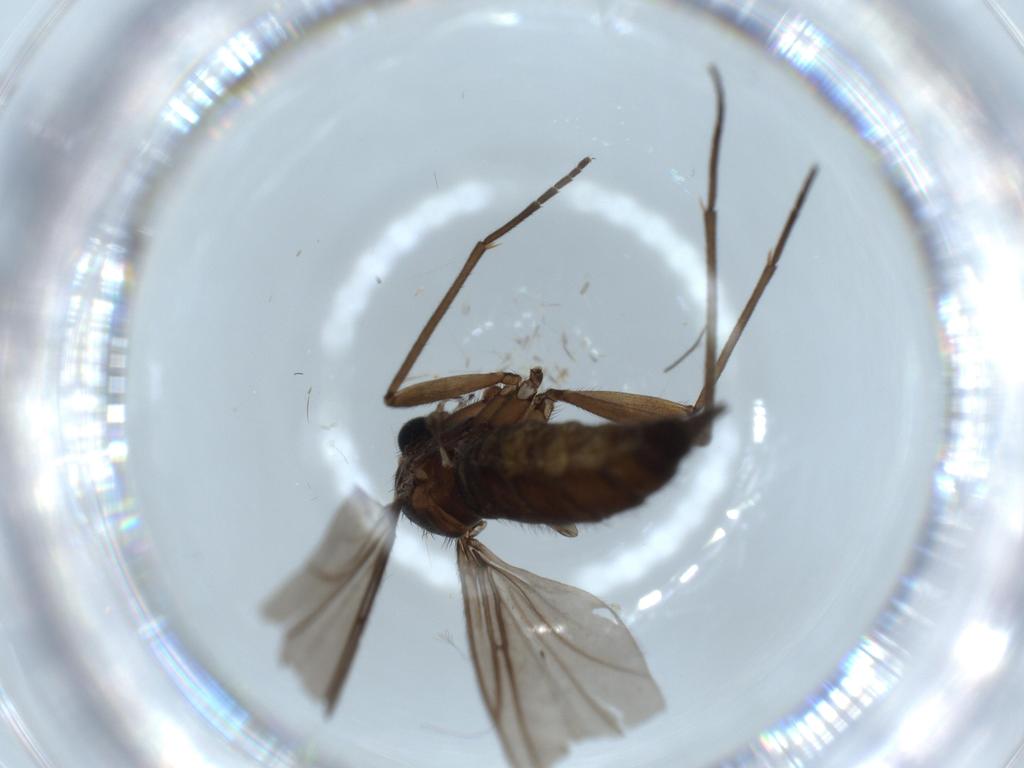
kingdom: Animalia
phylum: Arthropoda
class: Insecta
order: Diptera
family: Sciaridae
